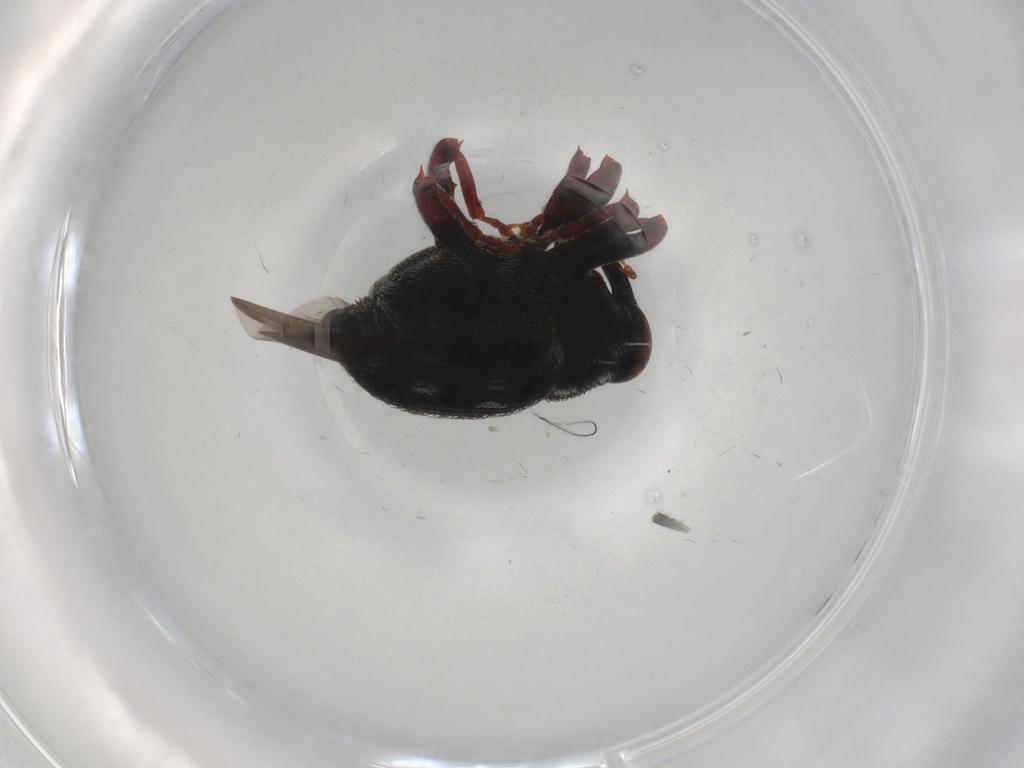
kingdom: Animalia
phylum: Arthropoda
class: Insecta
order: Coleoptera
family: Curculionidae
